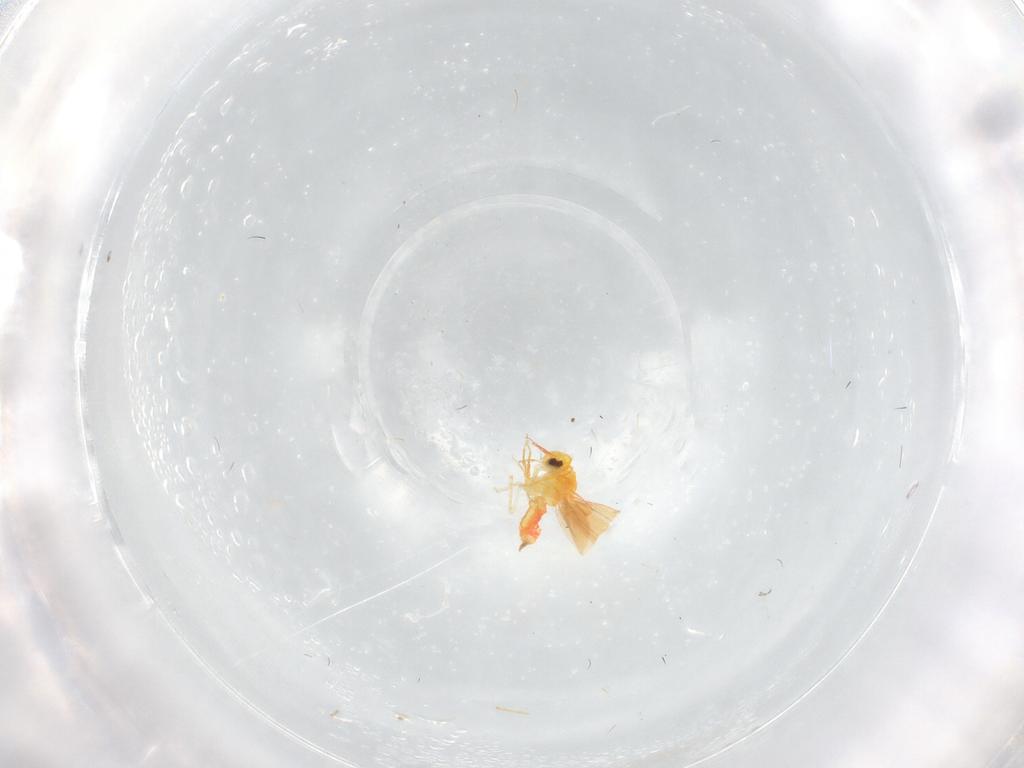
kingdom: Animalia
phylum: Arthropoda
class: Insecta
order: Hemiptera
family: Aleyrodidae
